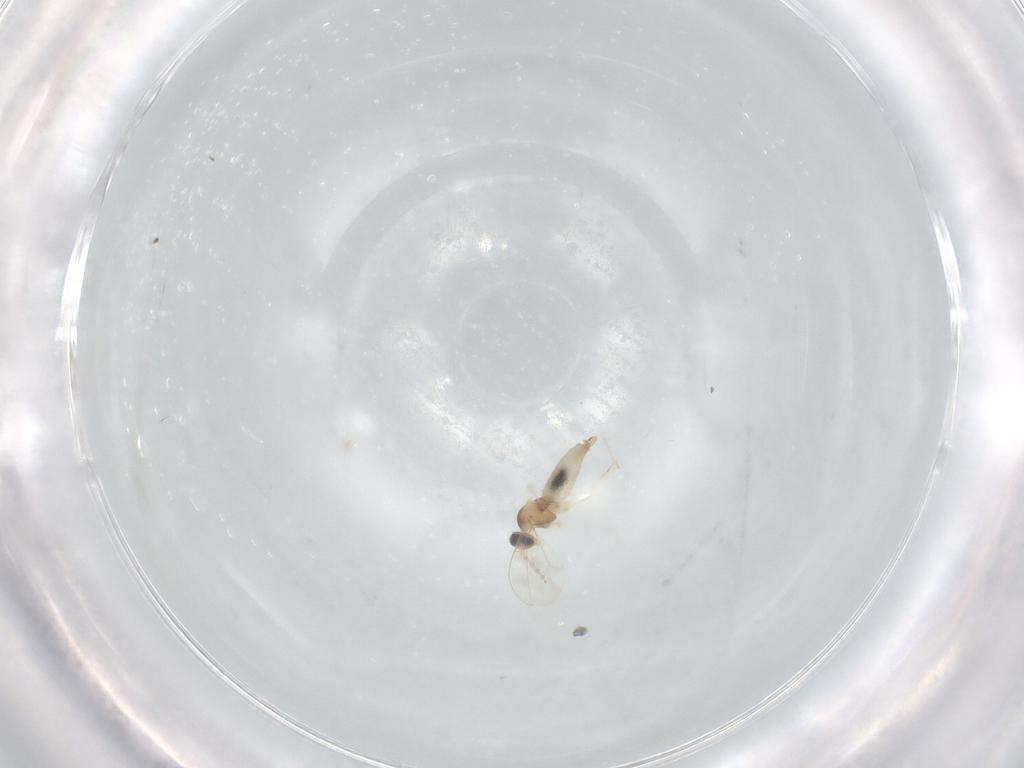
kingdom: Animalia
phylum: Arthropoda
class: Insecta
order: Diptera
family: Cecidomyiidae
